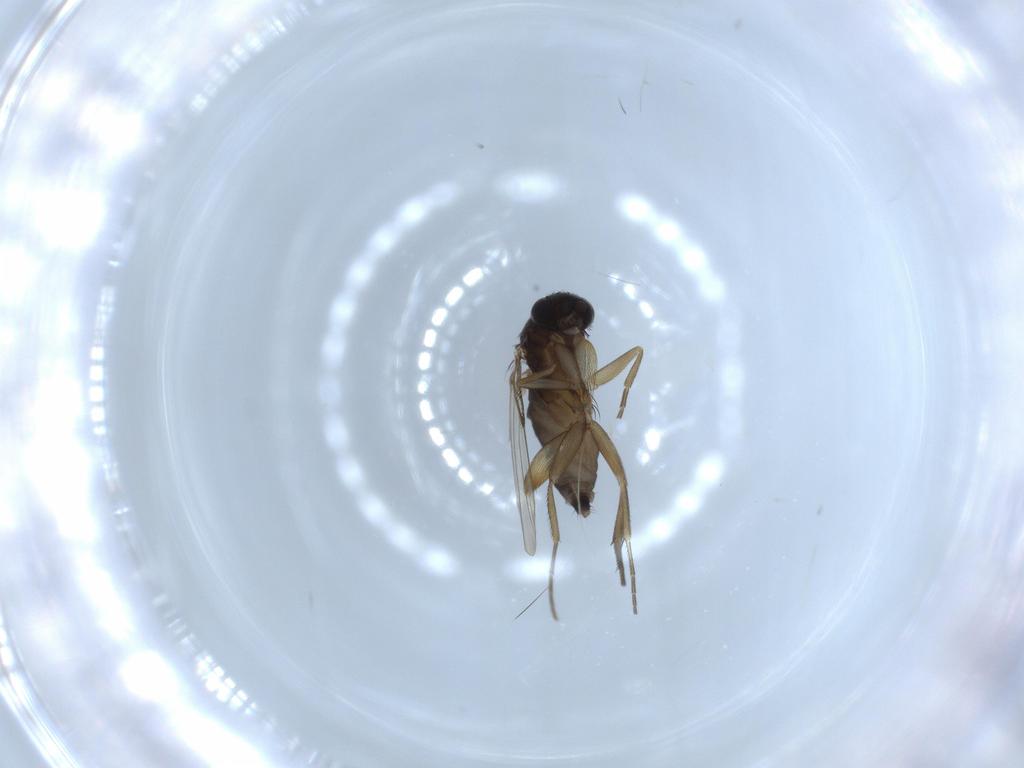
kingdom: Animalia
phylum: Arthropoda
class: Insecta
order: Diptera
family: Phoridae
